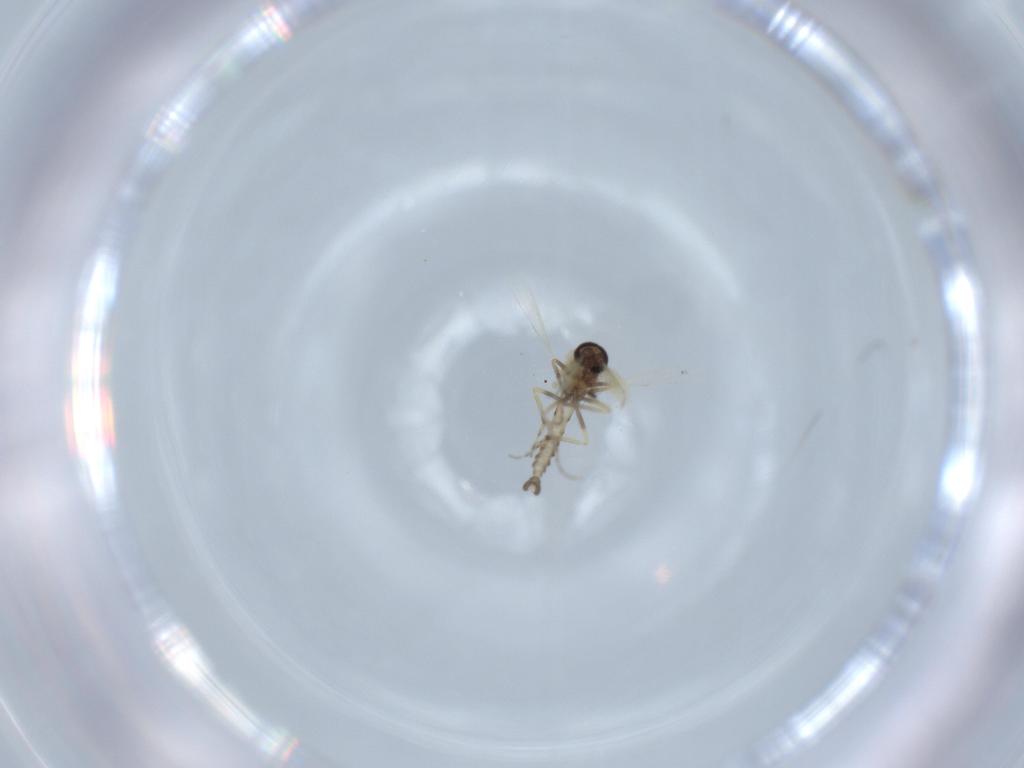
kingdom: Animalia
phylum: Arthropoda
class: Insecta
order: Diptera
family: Ceratopogonidae
